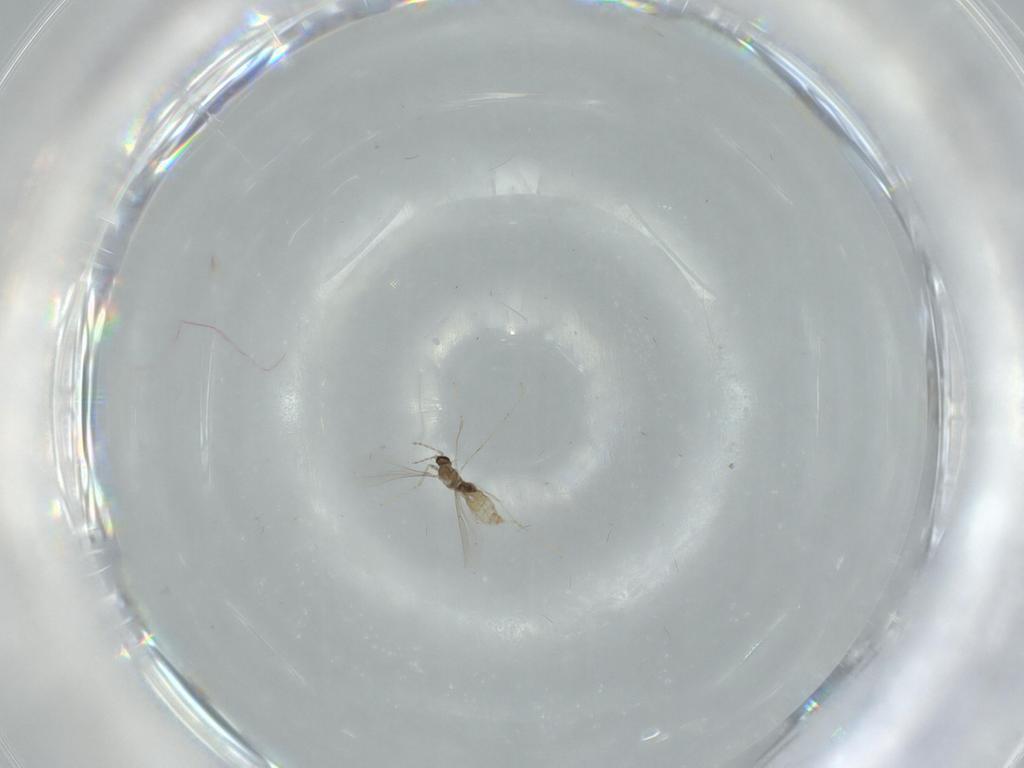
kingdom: Animalia
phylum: Arthropoda
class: Insecta
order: Diptera
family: Cecidomyiidae
